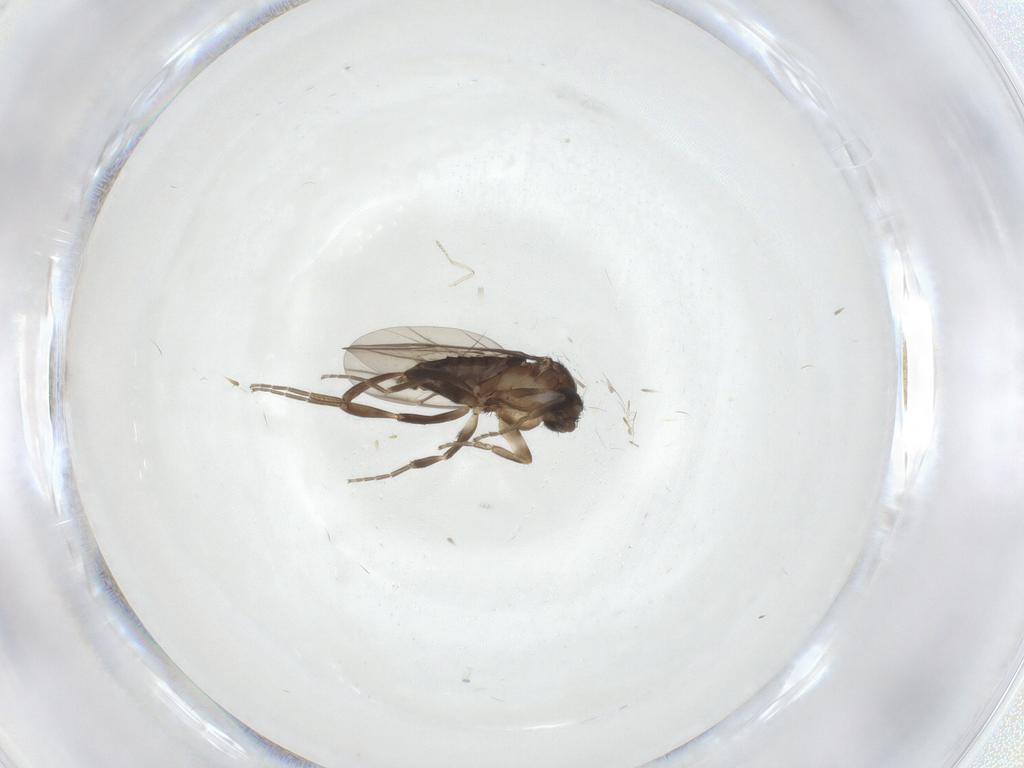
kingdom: Animalia
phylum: Arthropoda
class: Insecta
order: Diptera
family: Phoridae
